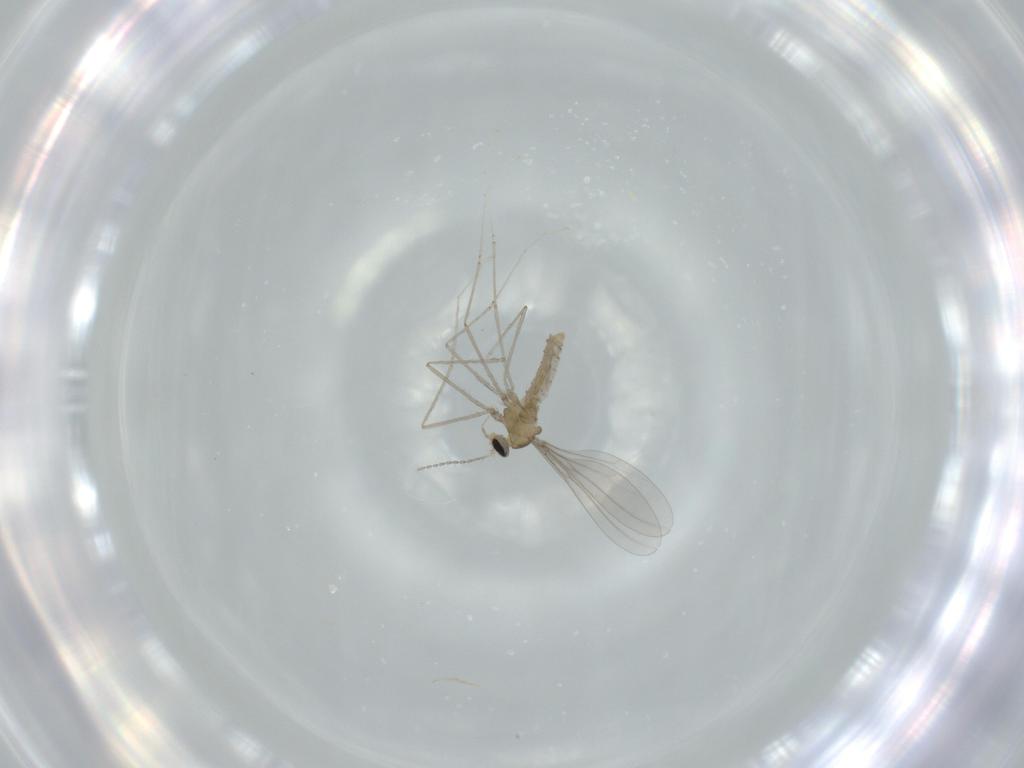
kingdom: Animalia
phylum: Arthropoda
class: Insecta
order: Diptera
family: Cecidomyiidae
